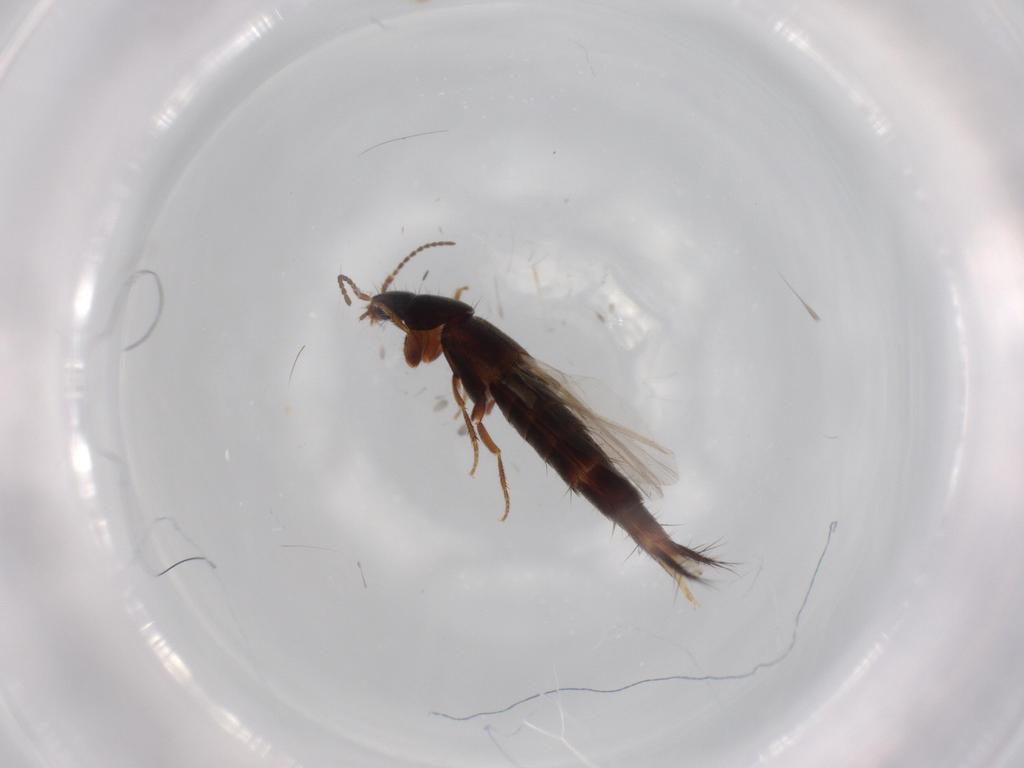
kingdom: Animalia
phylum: Arthropoda
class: Insecta
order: Coleoptera
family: Staphylinidae
